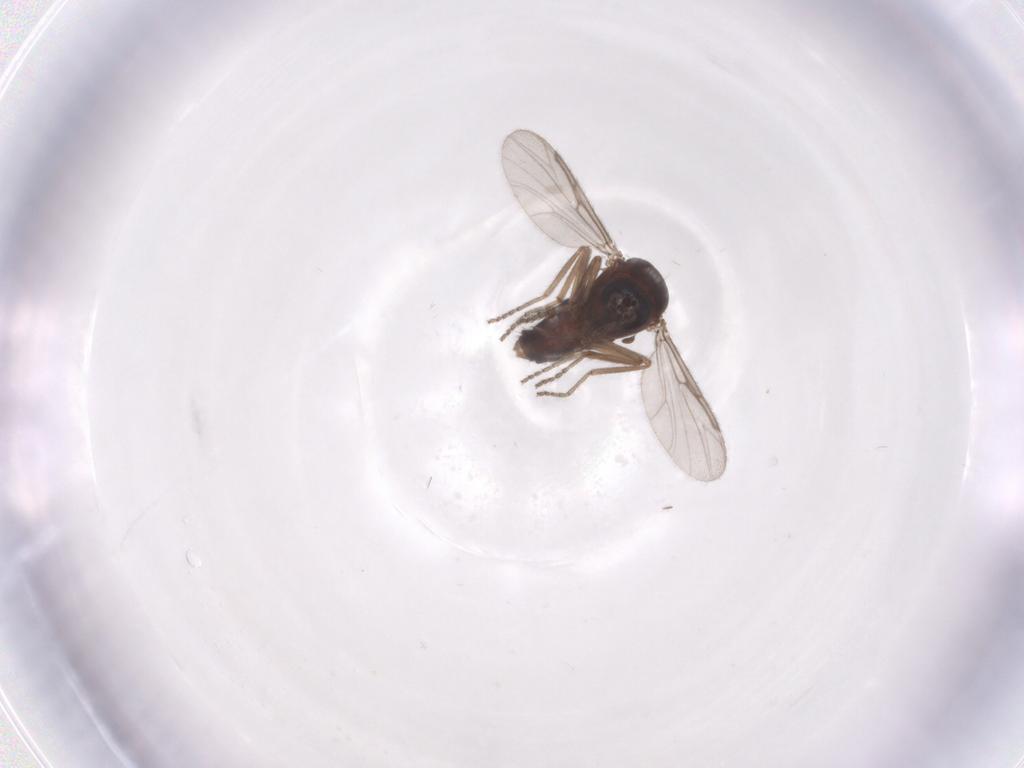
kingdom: Animalia
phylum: Arthropoda
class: Insecta
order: Diptera
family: Ceratopogonidae
